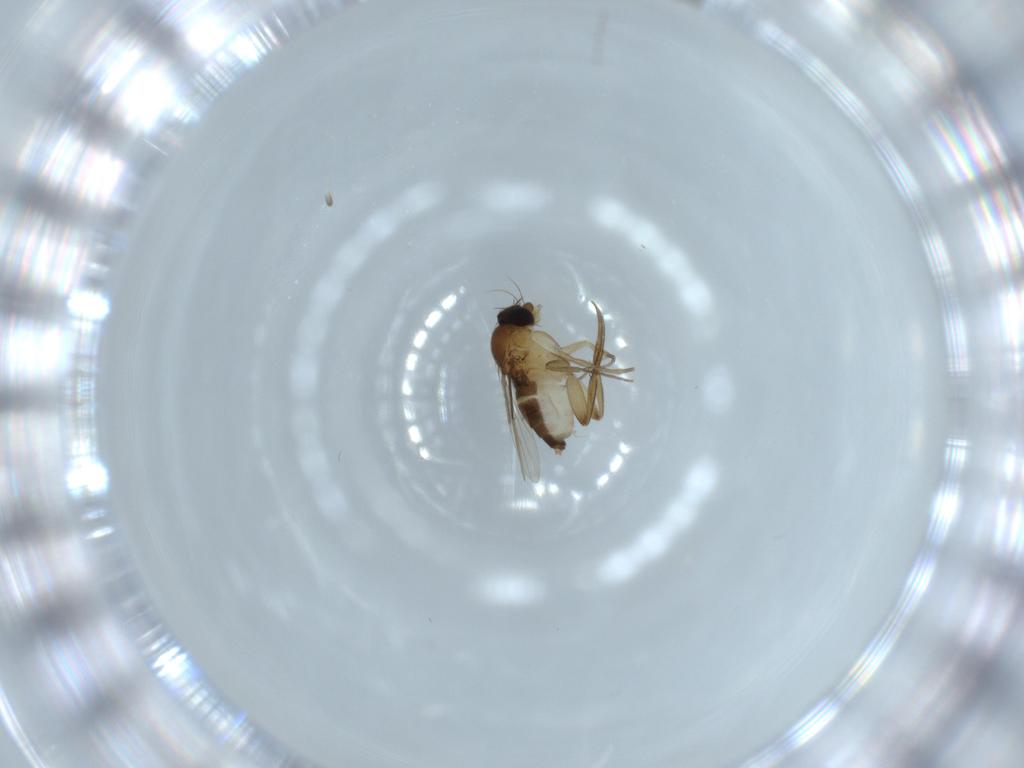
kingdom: Animalia
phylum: Arthropoda
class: Insecta
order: Diptera
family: Phoridae
